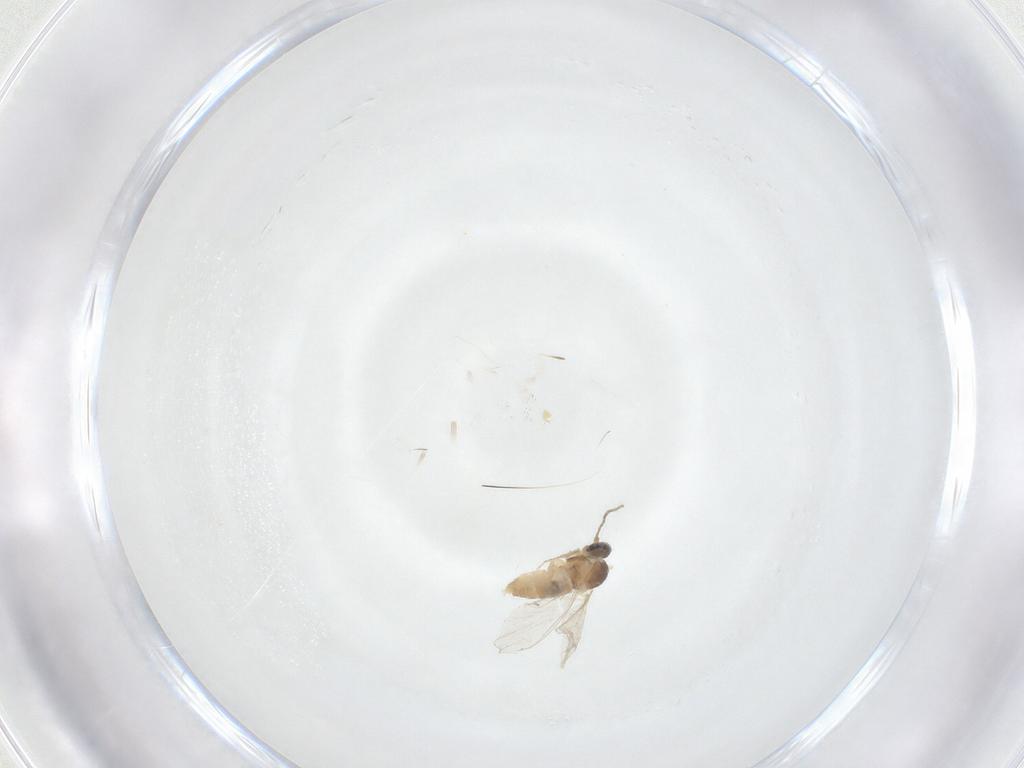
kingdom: Animalia
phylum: Arthropoda
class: Insecta
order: Diptera
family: Cecidomyiidae
